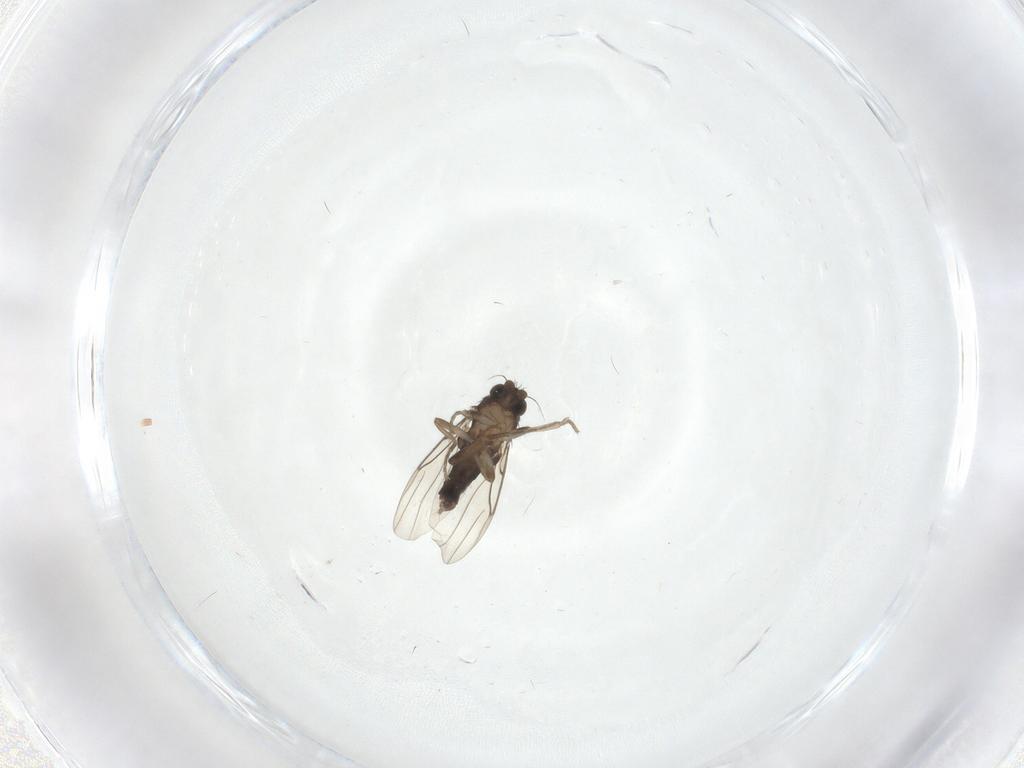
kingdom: Animalia
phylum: Arthropoda
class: Insecta
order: Diptera
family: Phoridae
